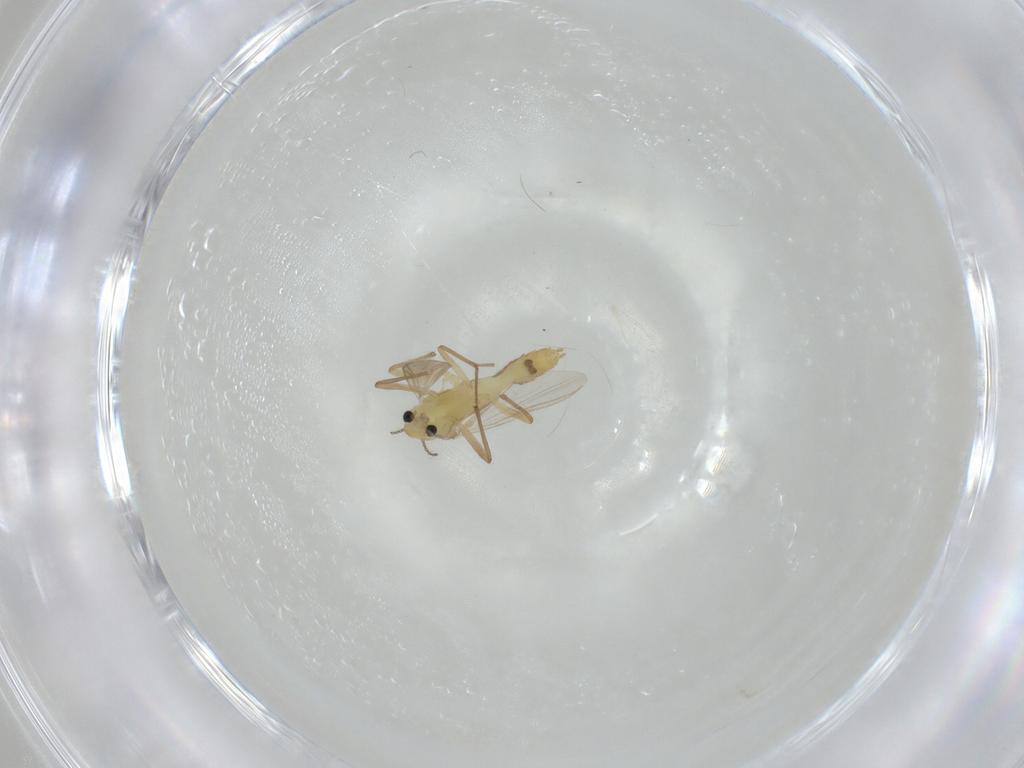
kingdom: Animalia
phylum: Arthropoda
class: Insecta
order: Diptera
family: Chironomidae
